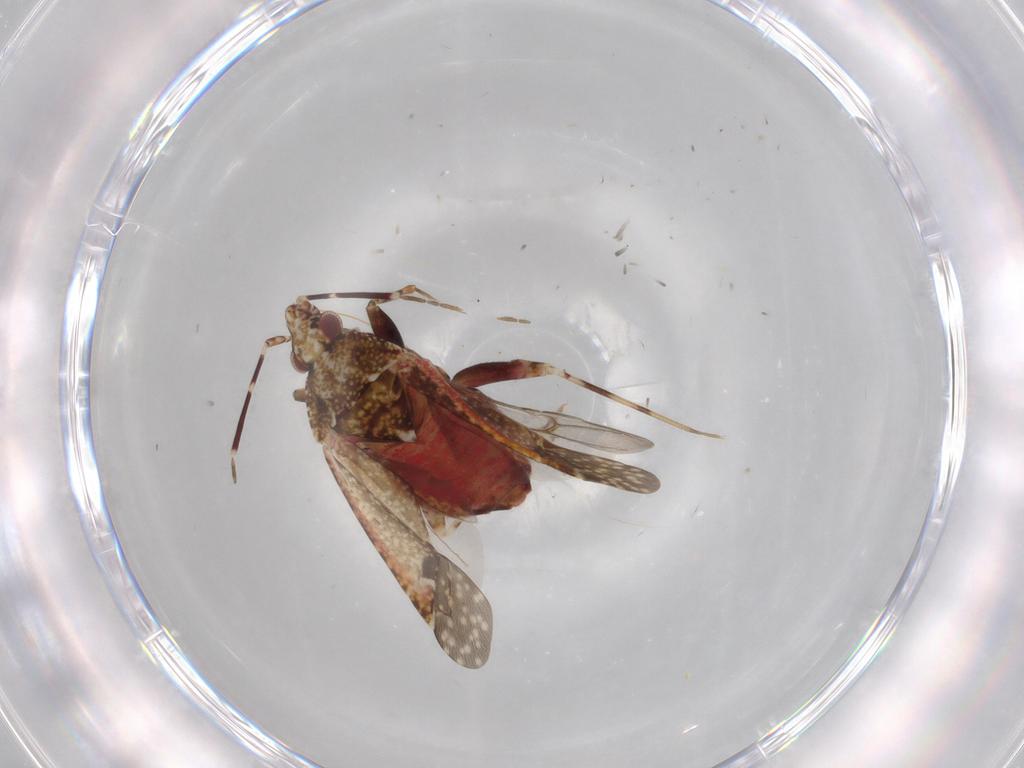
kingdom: Animalia
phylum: Arthropoda
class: Insecta
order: Hemiptera
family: Miridae
